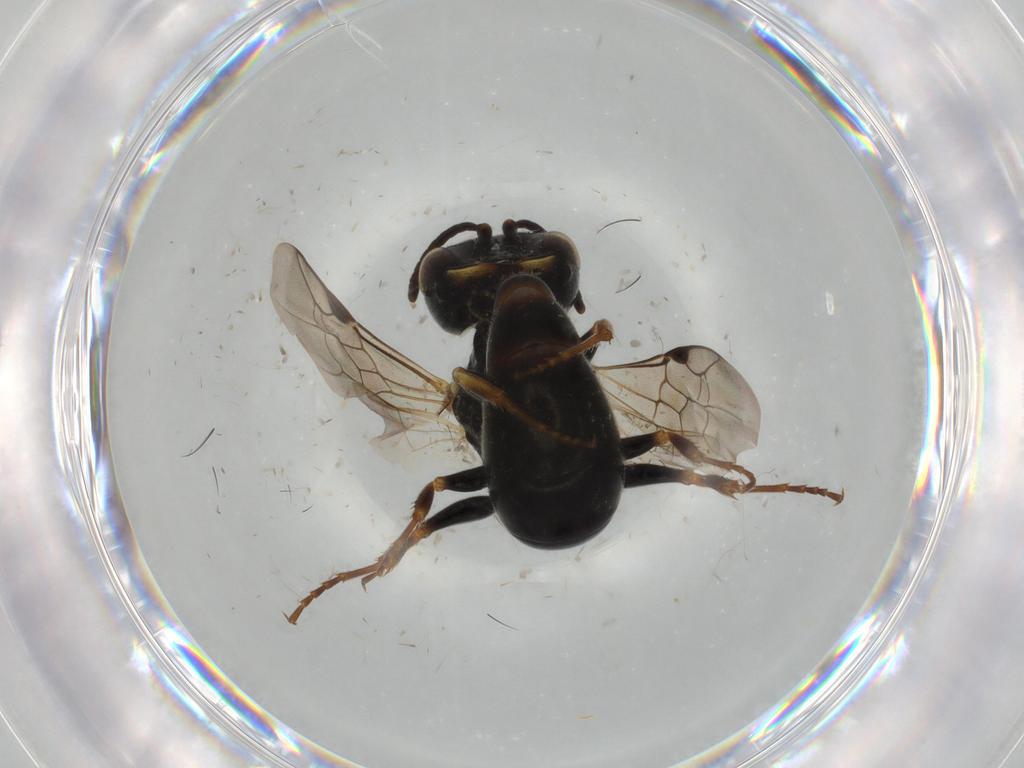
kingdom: Animalia
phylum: Arthropoda
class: Insecta
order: Hymenoptera
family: Crabronidae
